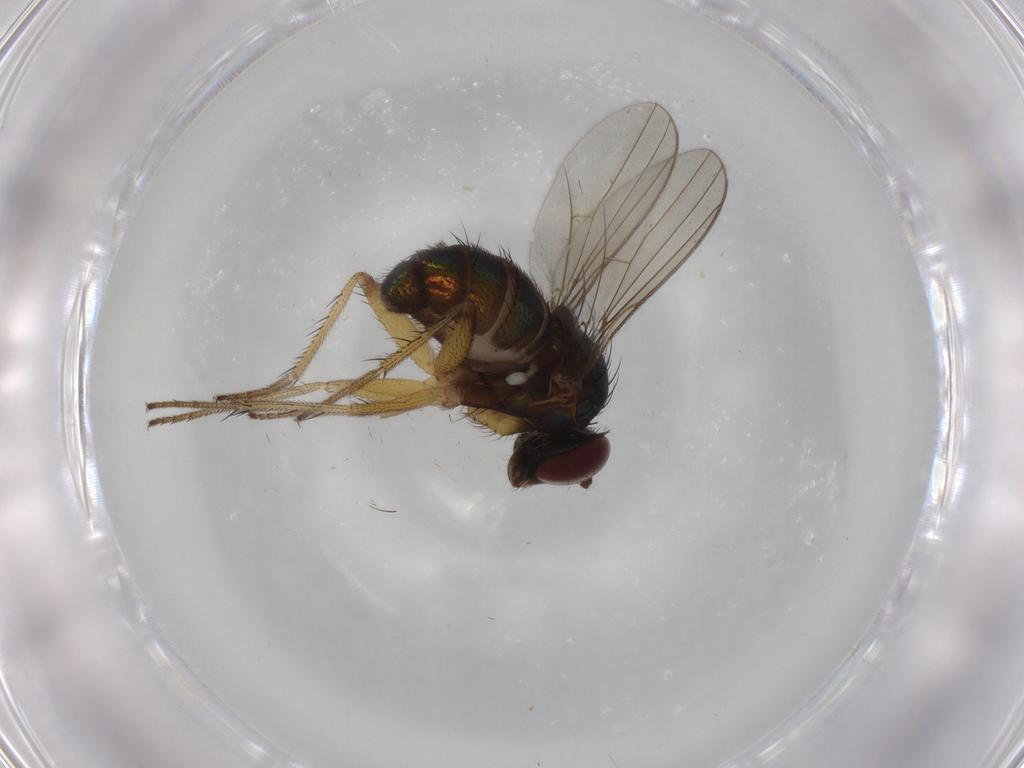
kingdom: Animalia
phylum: Arthropoda
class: Insecta
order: Diptera
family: Dolichopodidae
